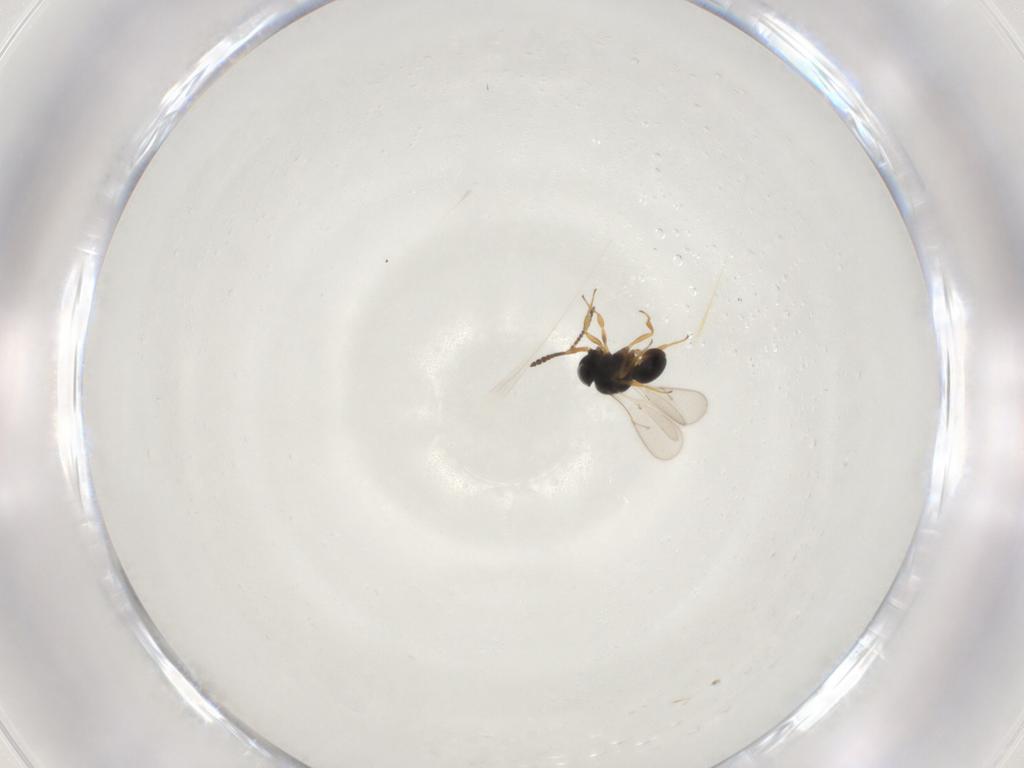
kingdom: Animalia
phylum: Arthropoda
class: Insecta
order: Hymenoptera
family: Scelionidae
